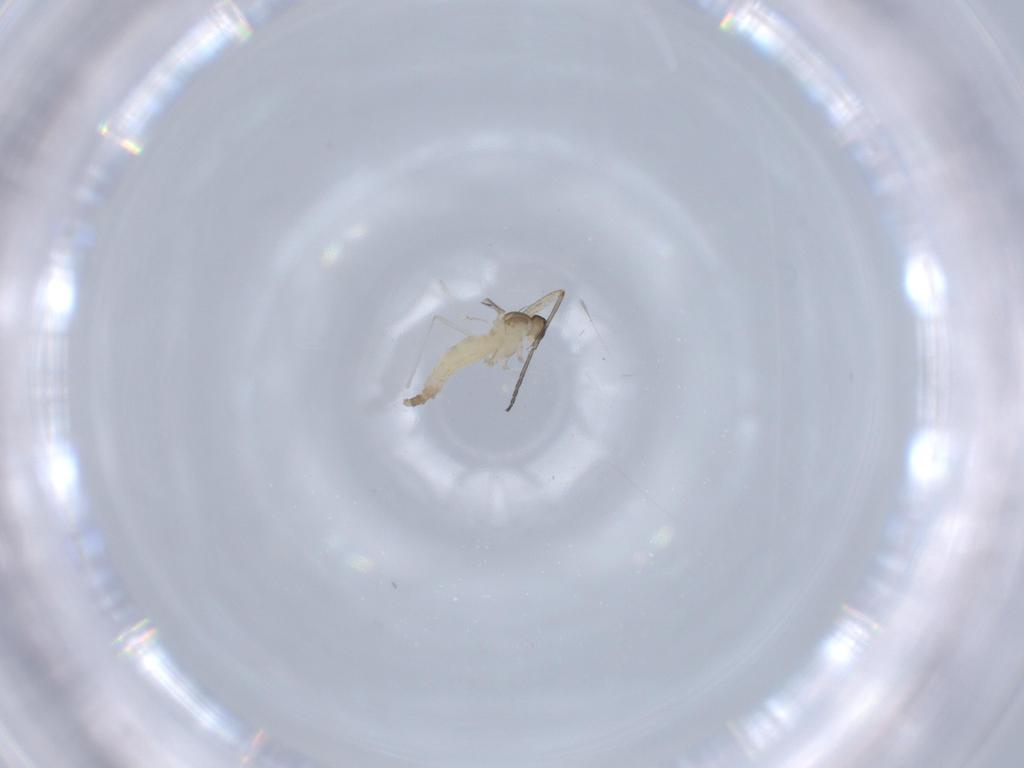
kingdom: Animalia
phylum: Arthropoda
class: Insecta
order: Diptera
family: Cecidomyiidae
